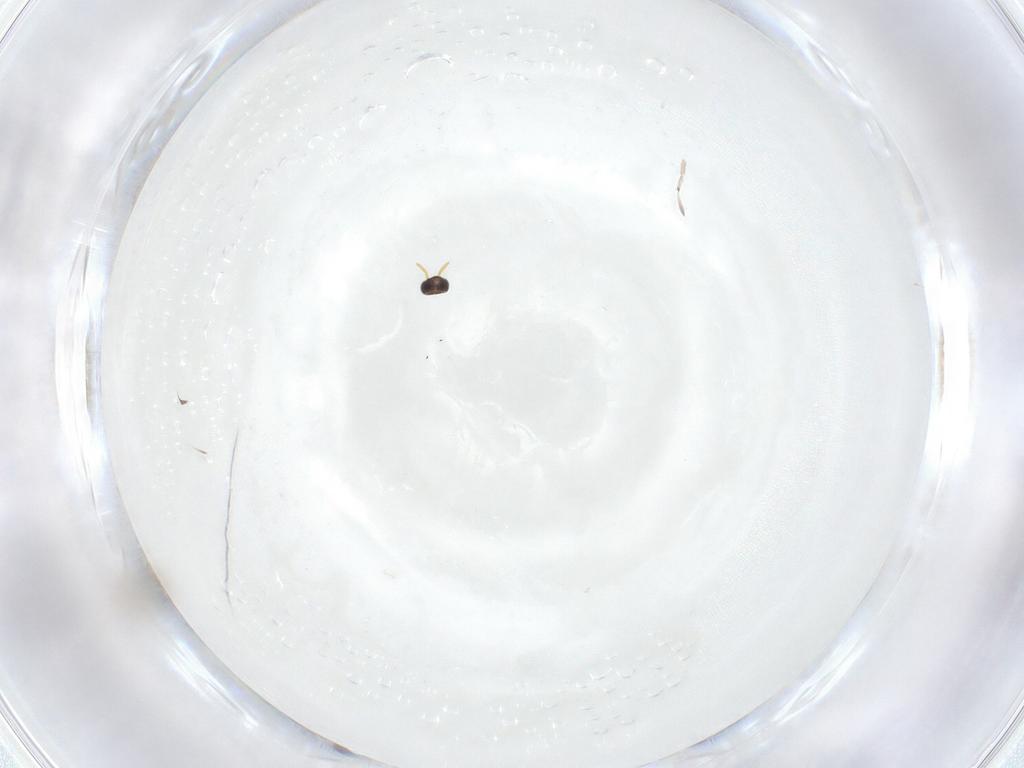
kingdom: Animalia
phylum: Arthropoda
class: Insecta
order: Hymenoptera
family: Aphelinidae
